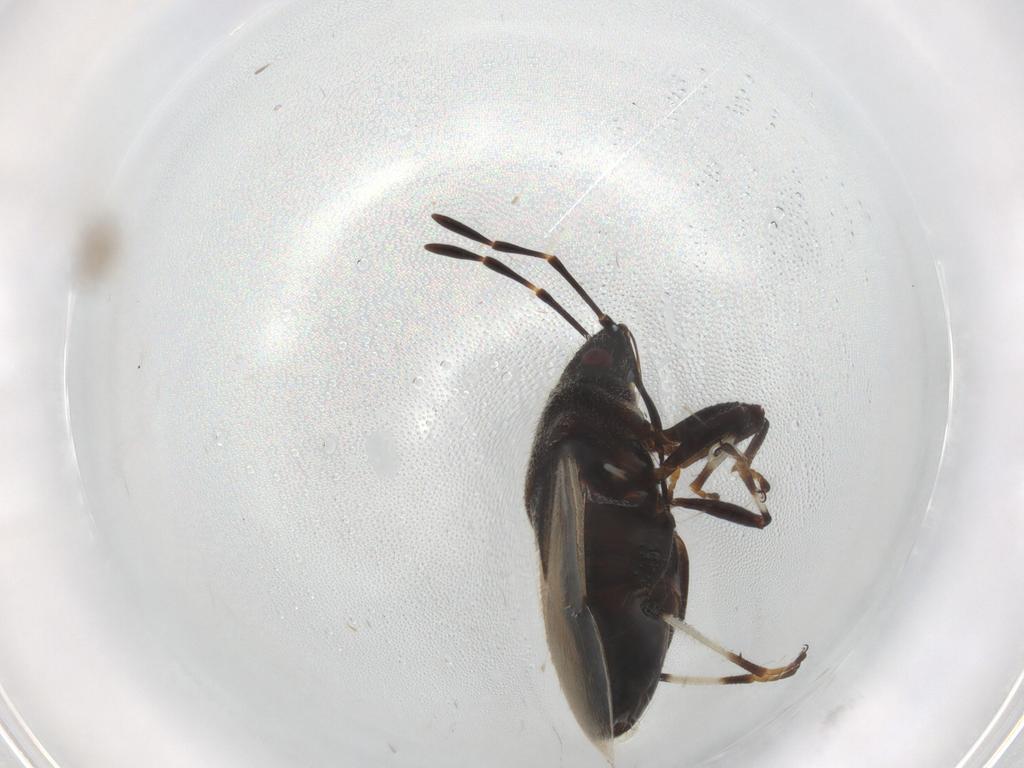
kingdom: Animalia
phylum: Arthropoda
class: Insecta
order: Hemiptera
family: Oxycarenidae
